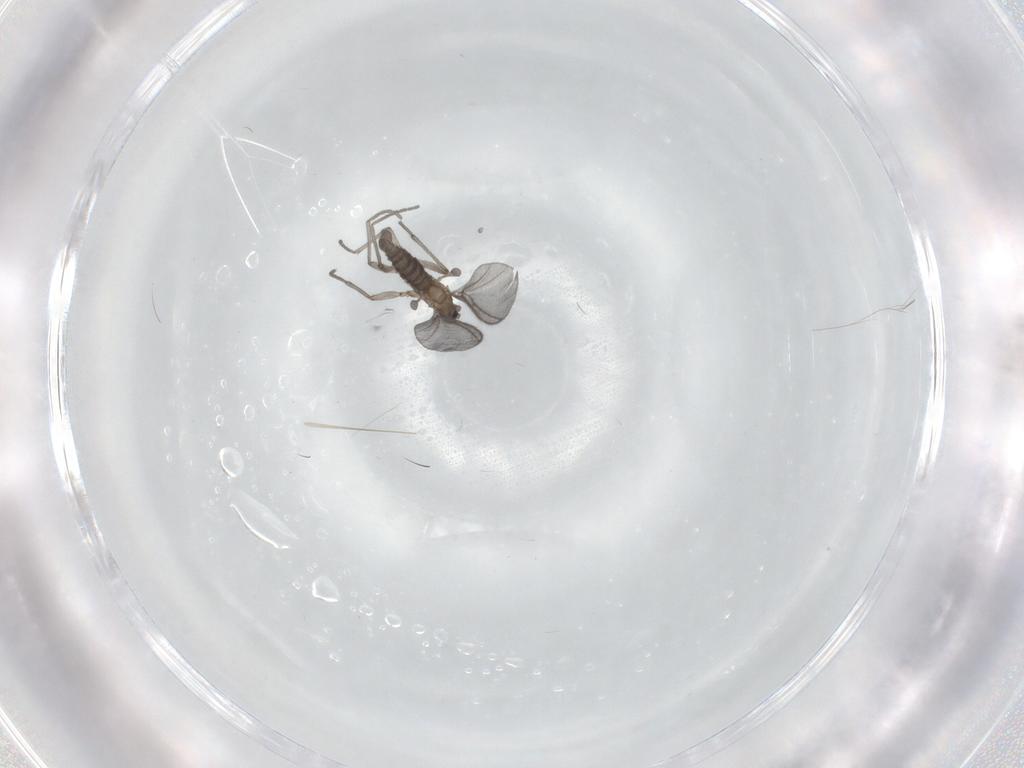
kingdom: Animalia
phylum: Arthropoda
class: Insecta
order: Diptera
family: Sciaridae
